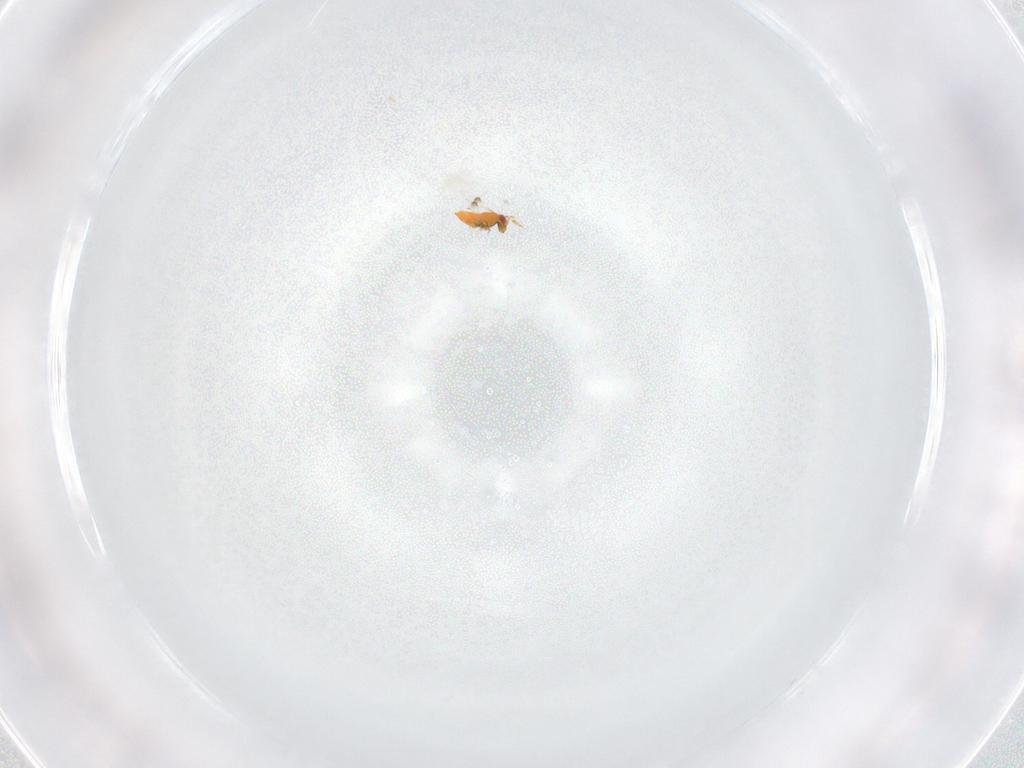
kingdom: Animalia
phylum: Arthropoda
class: Insecta
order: Hymenoptera
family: Trichogrammatidae
